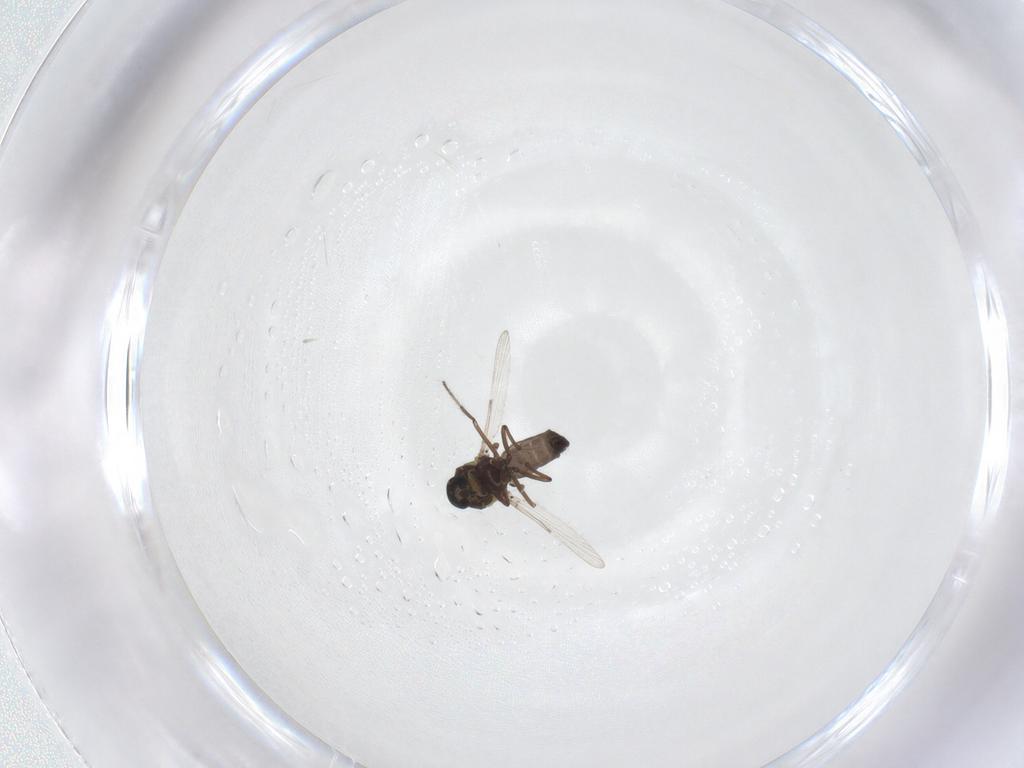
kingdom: Animalia
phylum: Arthropoda
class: Insecta
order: Diptera
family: Ceratopogonidae
